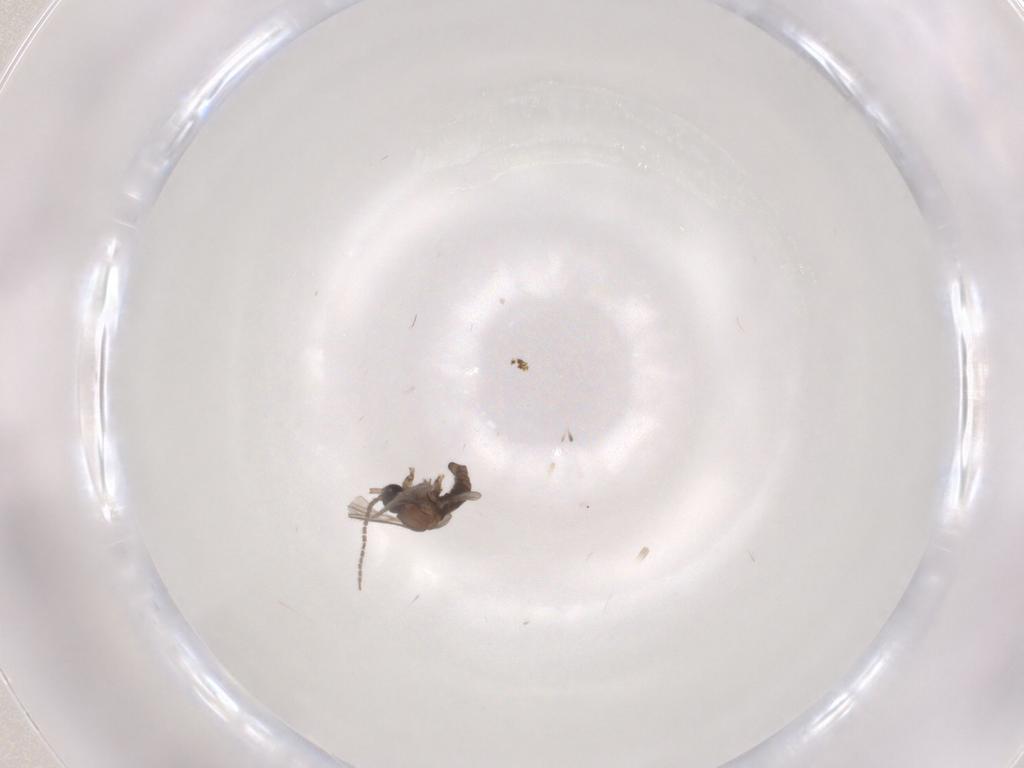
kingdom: Animalia
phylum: Arthropoda
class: Insecta
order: Diptera
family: Sciaridae
